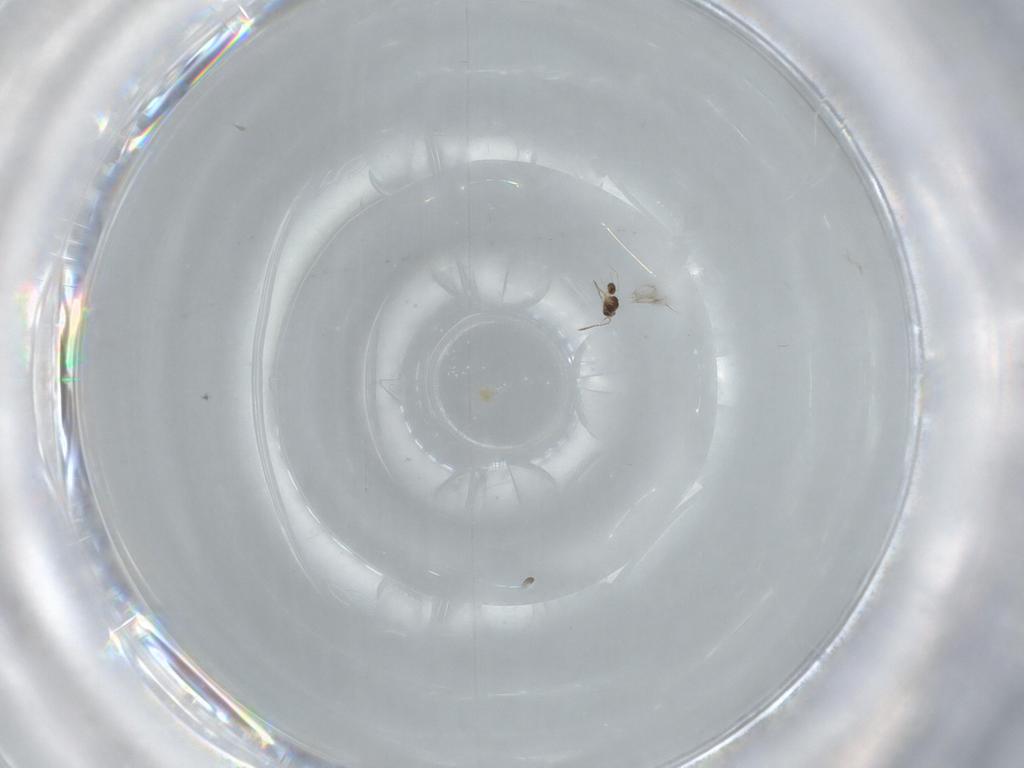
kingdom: Animalia
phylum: Arthropoda
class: Insecta
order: Hymenoptera
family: Mymarommatidae
